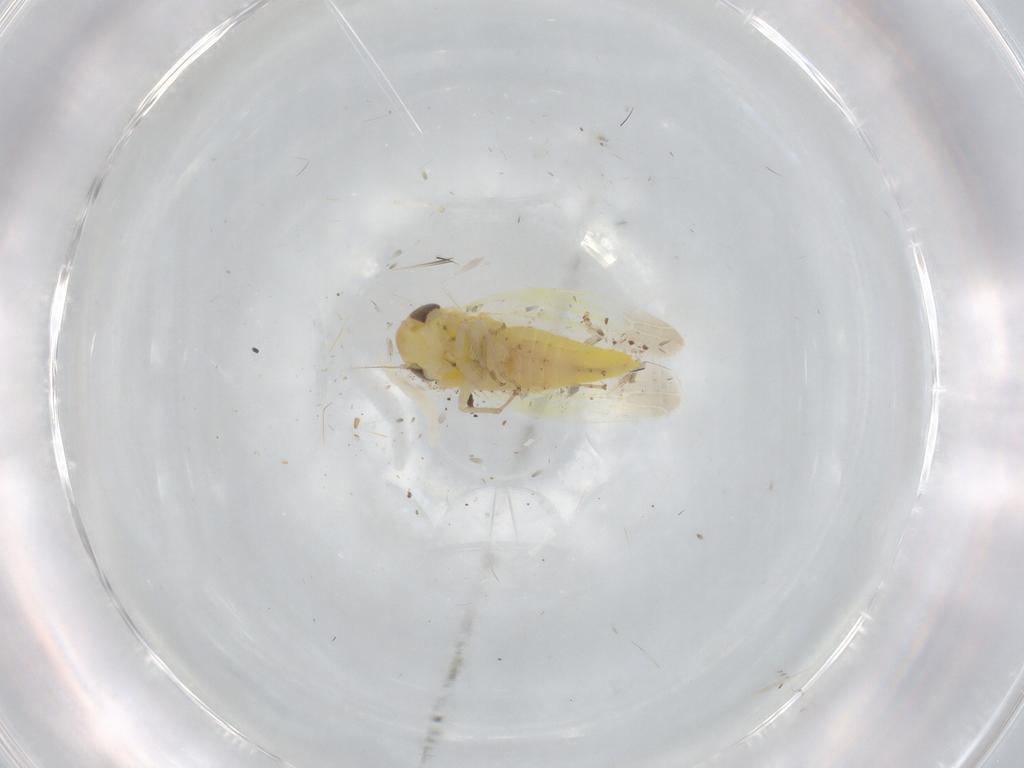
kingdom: Animalia
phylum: Arthropoda
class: Insecta
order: Hemiptera
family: Cicadellidae
